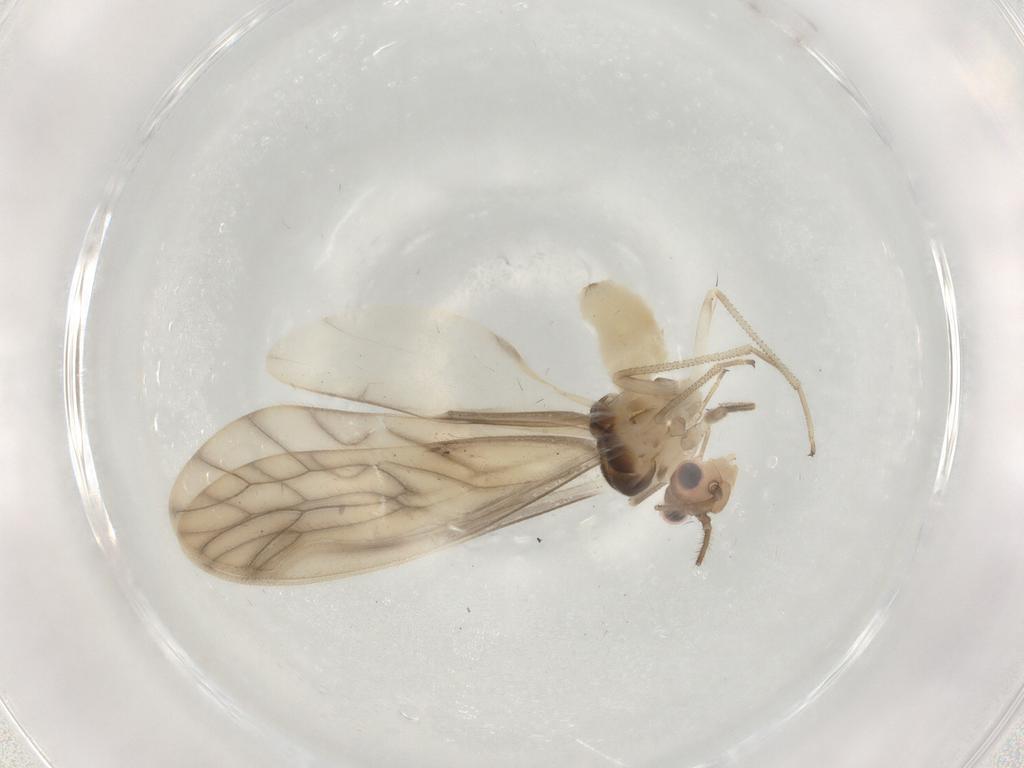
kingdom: Animalia
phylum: Arthropoda
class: Insecta
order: Psocodea
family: Caeciliusidae
